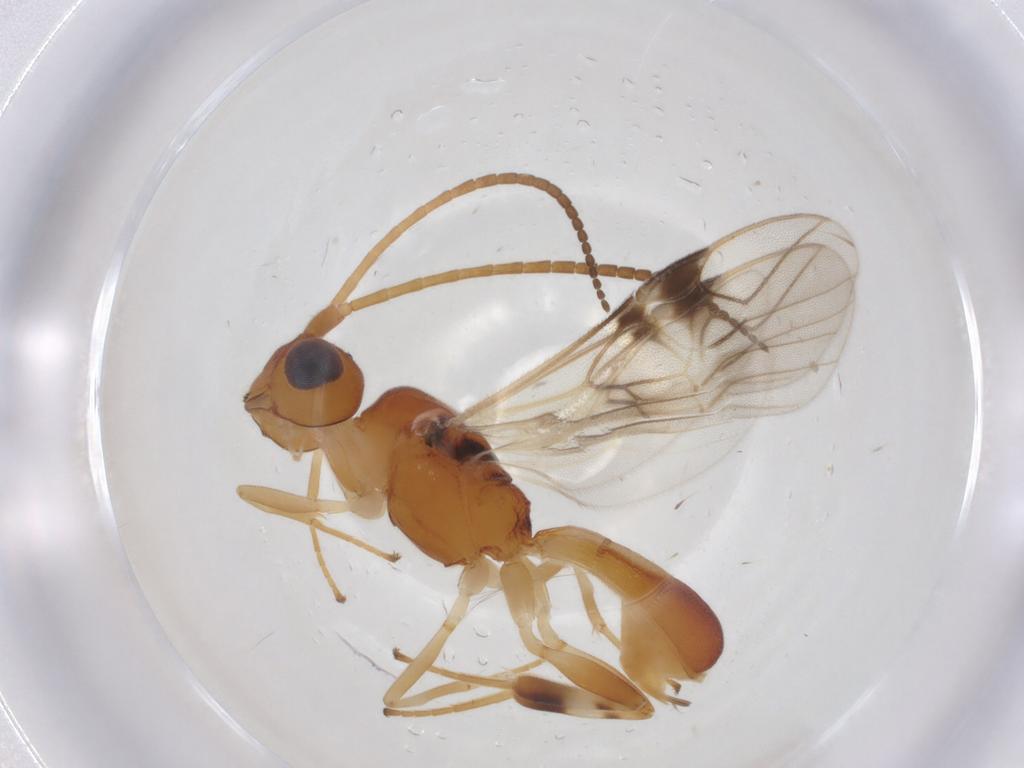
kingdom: Animalia
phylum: Arthropoda
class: Insecta
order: Hymenoptera
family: Braconidae
